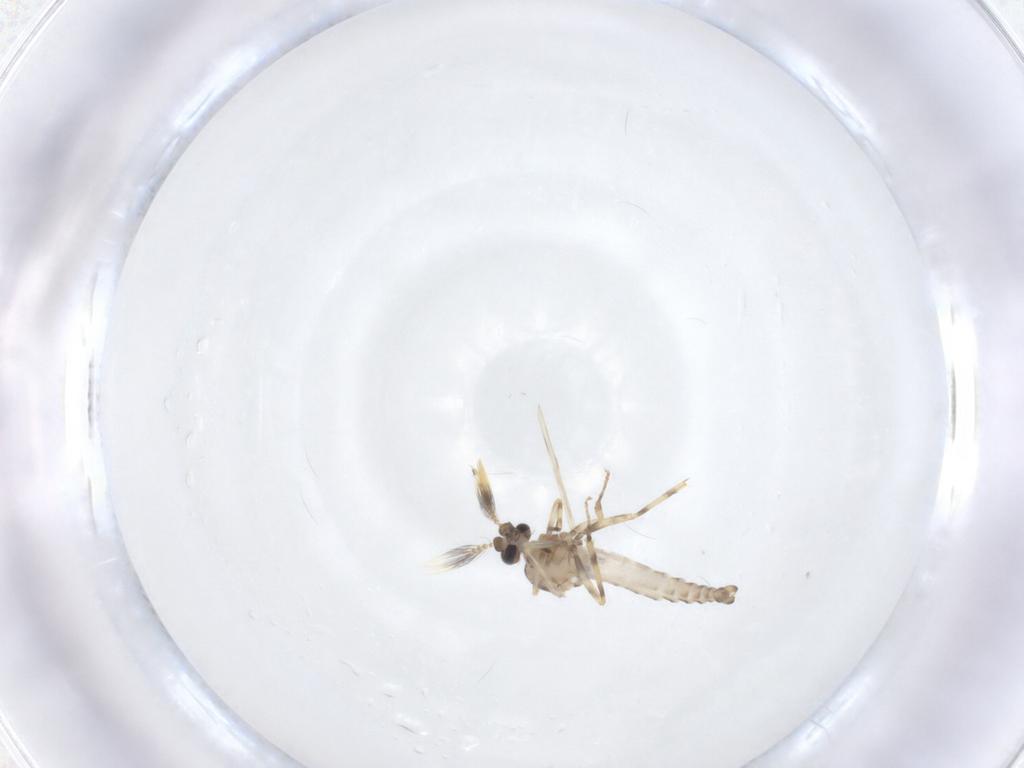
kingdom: Animalia
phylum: Arthropoda
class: Insecta
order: Diptera
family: Ceratopogonidae
